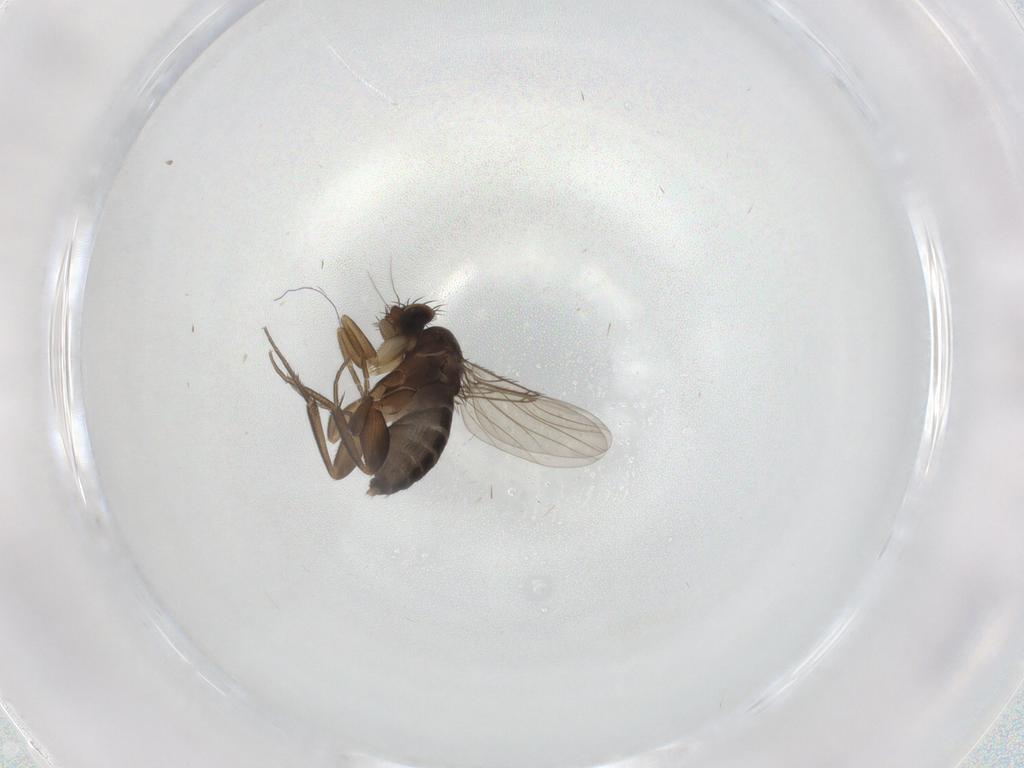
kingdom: Animalia
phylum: Arthropoda
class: Insecta
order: Diptera
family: Phoridae
